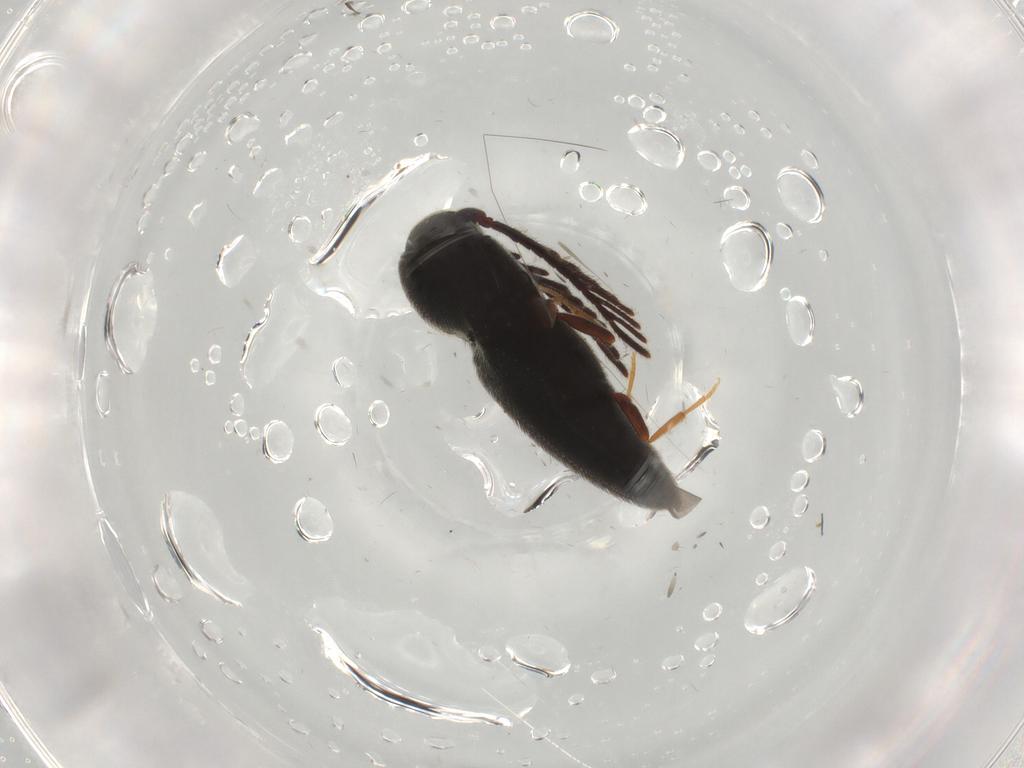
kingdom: Animalia
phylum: Arthropoda
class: Insecta
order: Coleoptera
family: Eucnemidae
